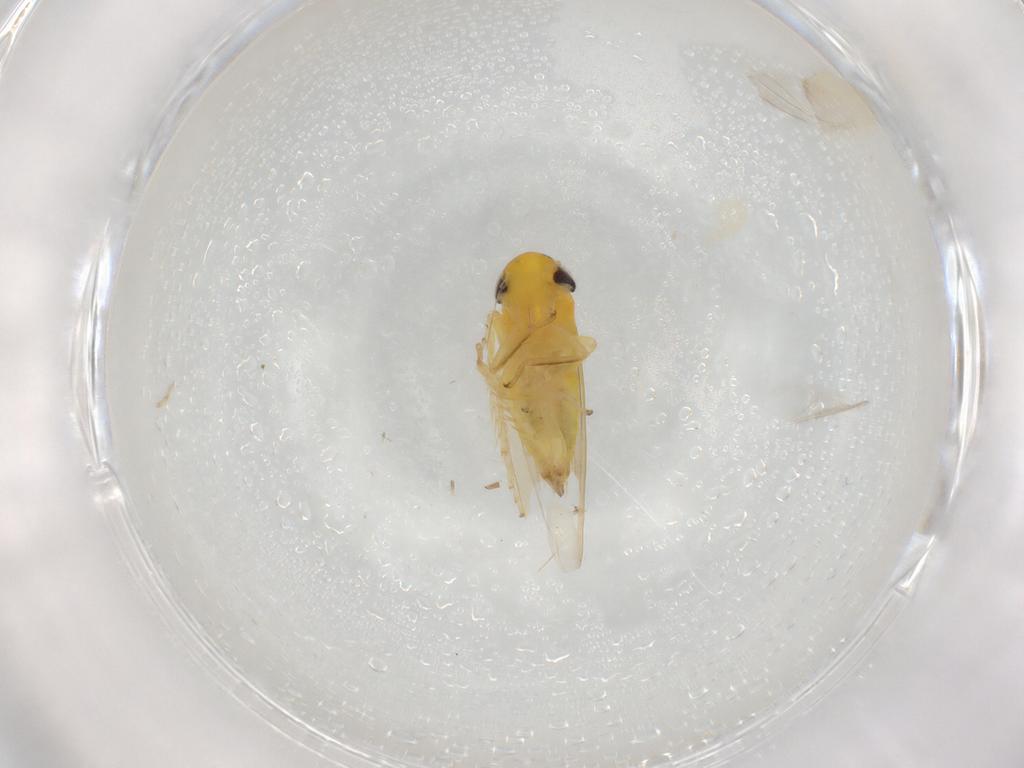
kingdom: Animalia
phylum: Arthropoda
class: Insecta
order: Hemiptera
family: Cicadellidae
